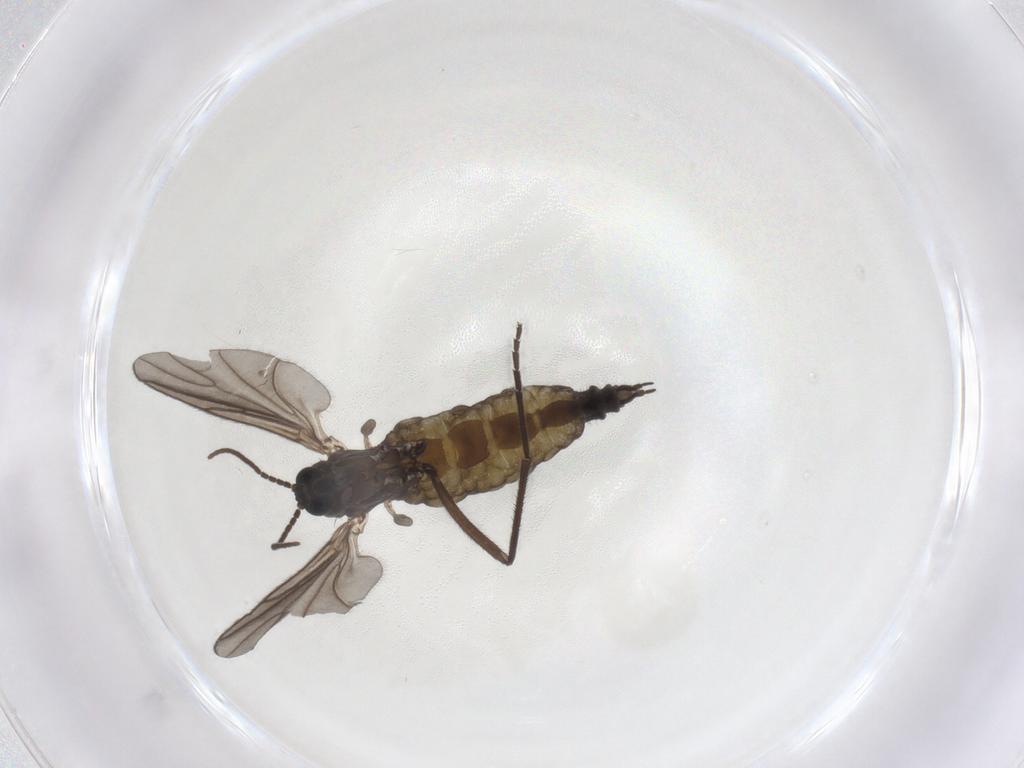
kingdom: Animalia
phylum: Arthropoda
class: Insecta
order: Diptera
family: Sciaridae
